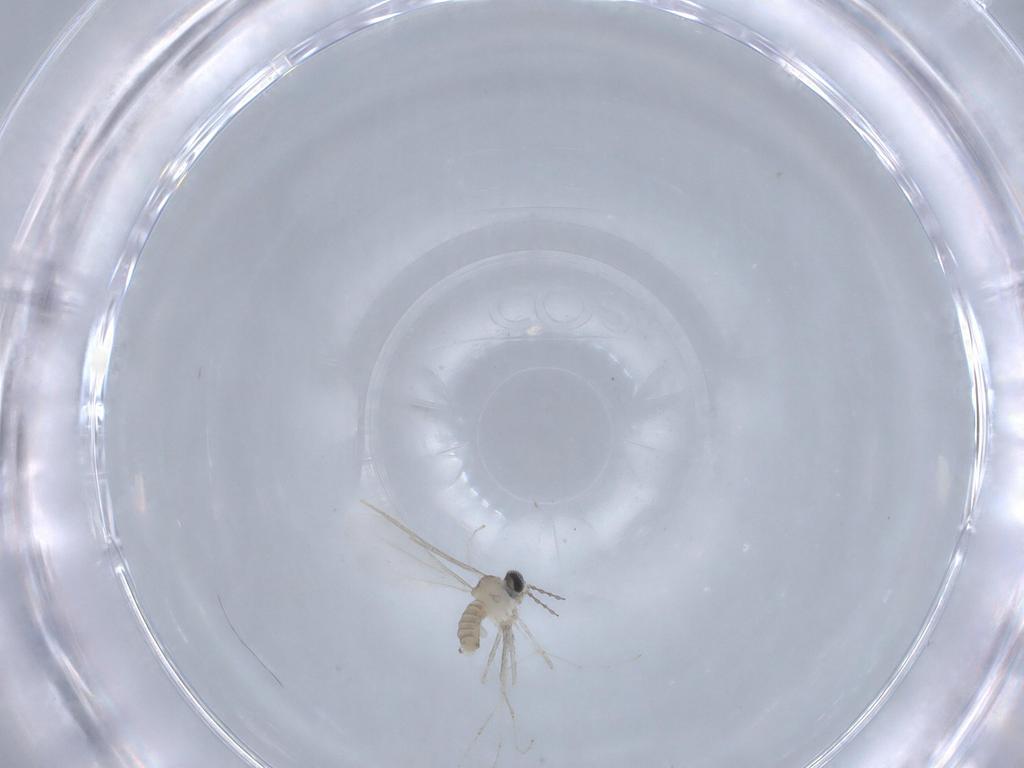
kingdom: Animalia
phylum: Arthropoda
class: Insecta
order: Diptera
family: Cecidomyiidae
